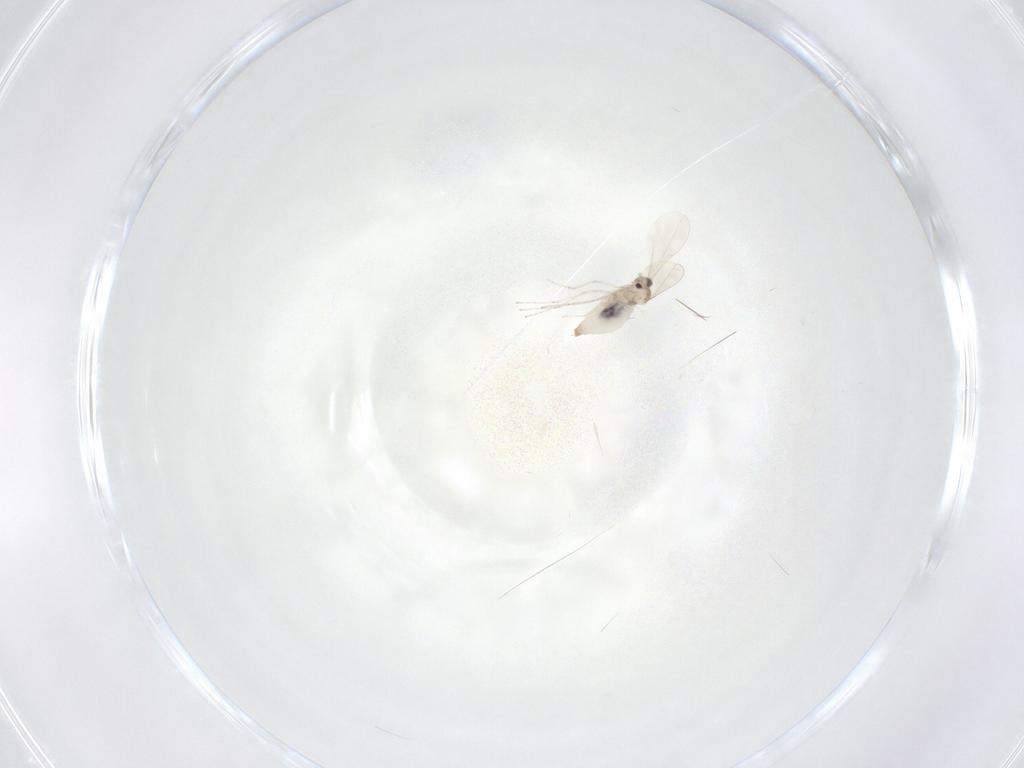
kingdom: Animalia
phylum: Arthropoda
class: Insecta
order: Diptera
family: Cecidomyiidae
